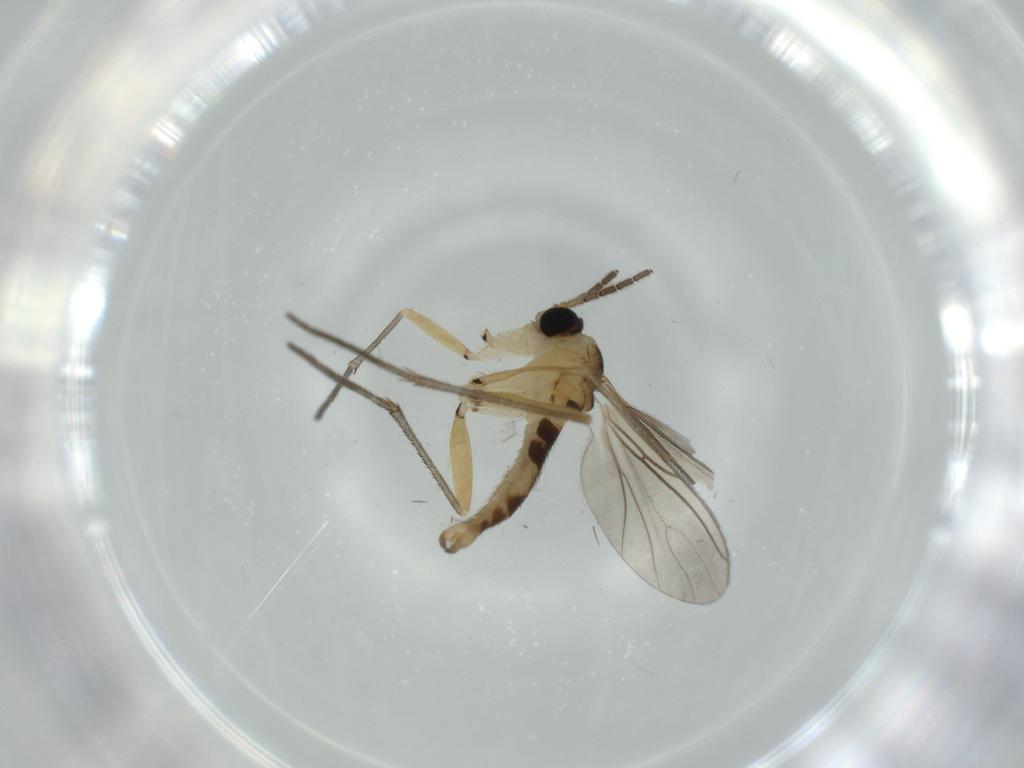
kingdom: Animalia
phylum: Arthropoda
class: Insecta
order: Diptera
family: Sciaridae
